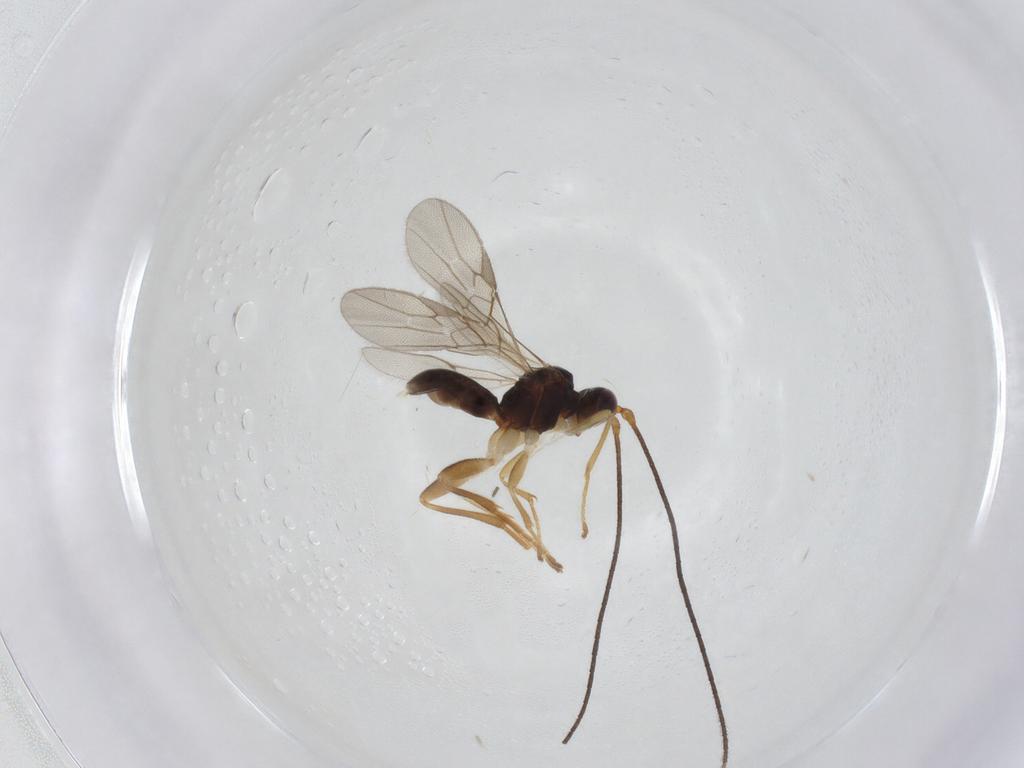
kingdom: Animalia
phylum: Arthropoda
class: Insecta
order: Hymenoptera
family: Braconidae
